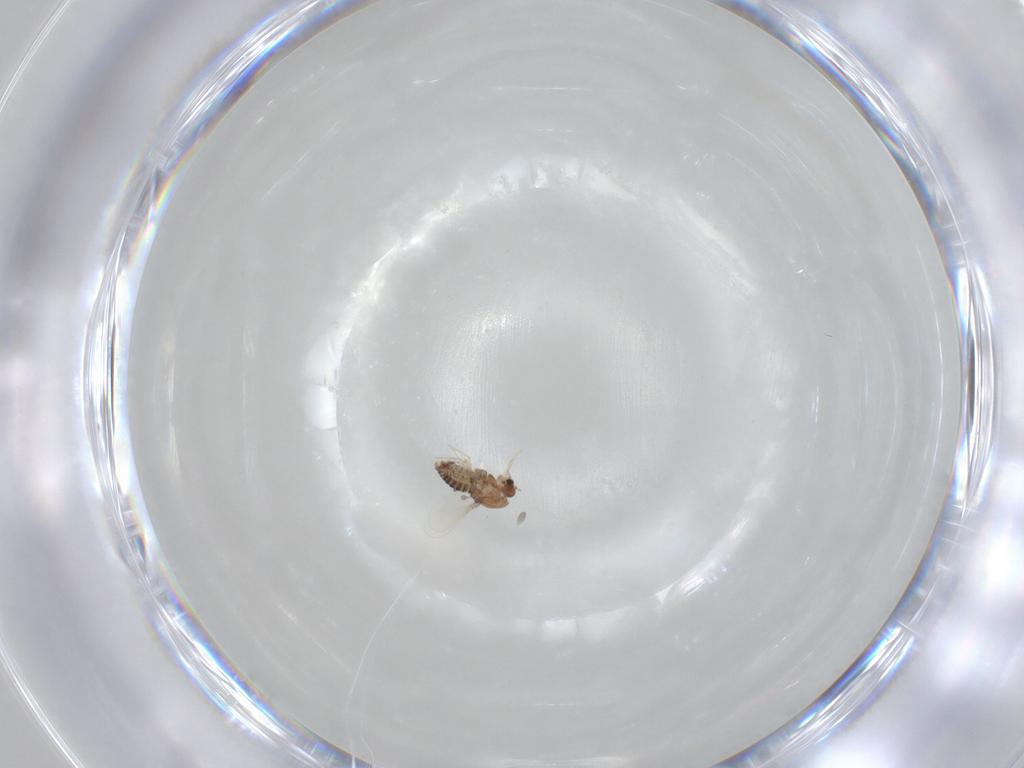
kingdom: Animalia
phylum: Arthropoda
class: Insecta
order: Diptera
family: Chironomidae
